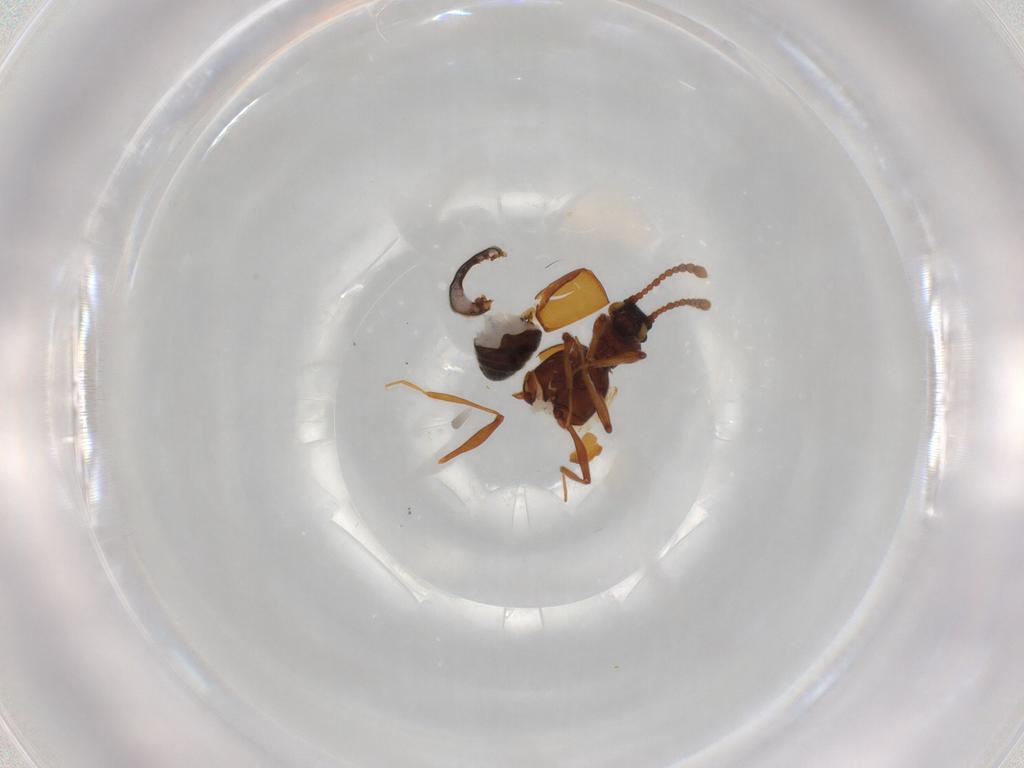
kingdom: Animalia
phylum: Arthropoda
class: Insecta
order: Coleoptera
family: Staphylinidae
